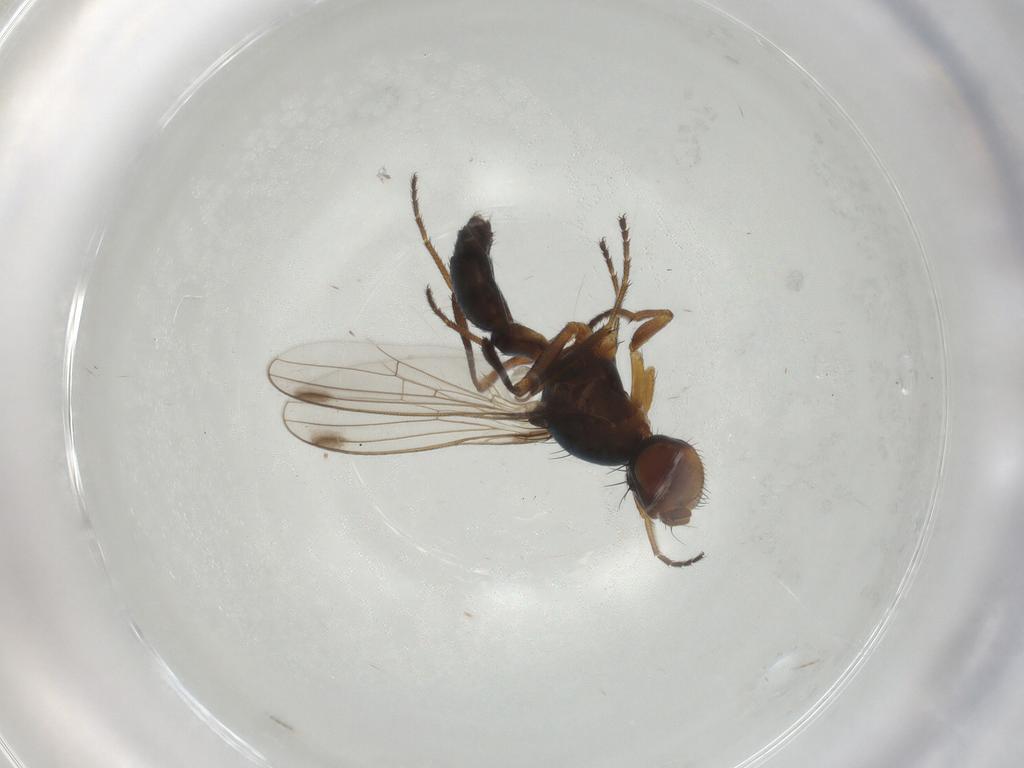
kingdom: Animalia
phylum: Arthropoda
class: Insecta
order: Diptera
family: Sepsidae
